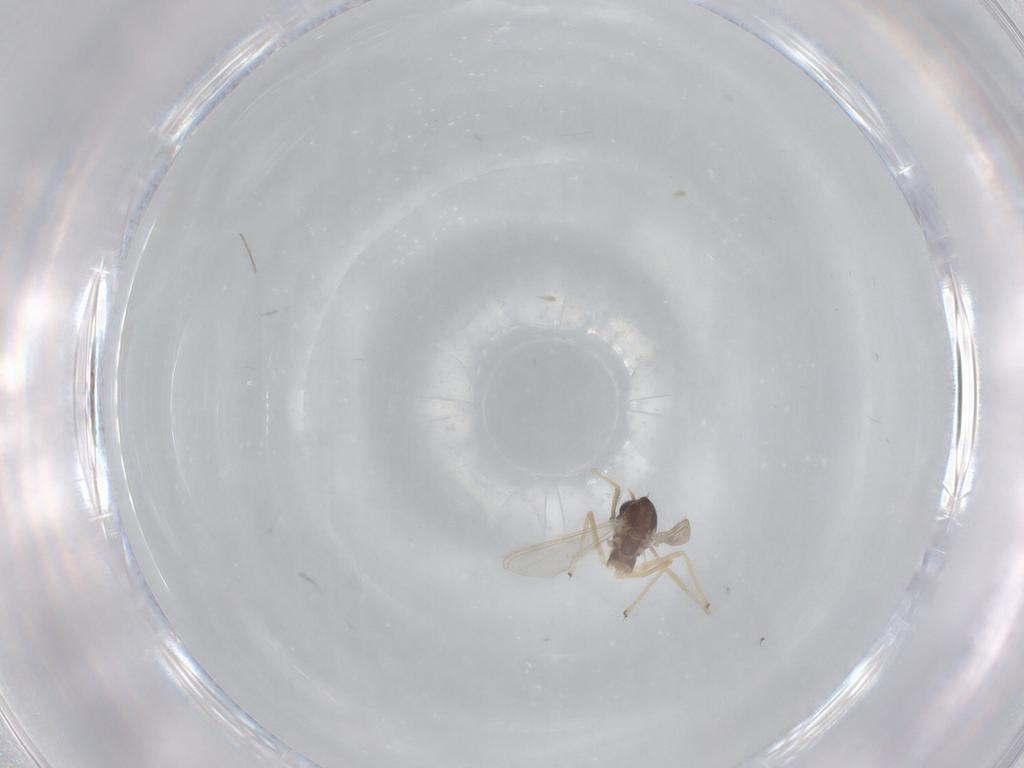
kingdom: Animalia
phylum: Arthropoda
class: Insecta
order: Diptera
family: Chironomidae
